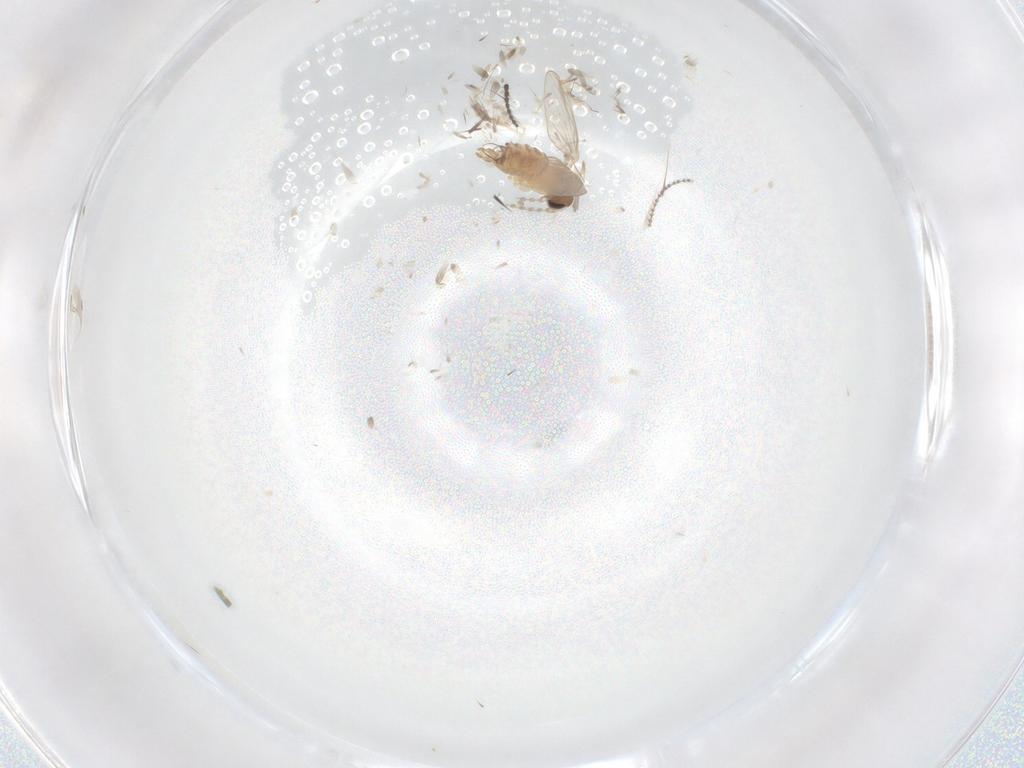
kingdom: Animalia
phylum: Arthropoda
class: Insecta
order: Diptera
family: Limoniidae
